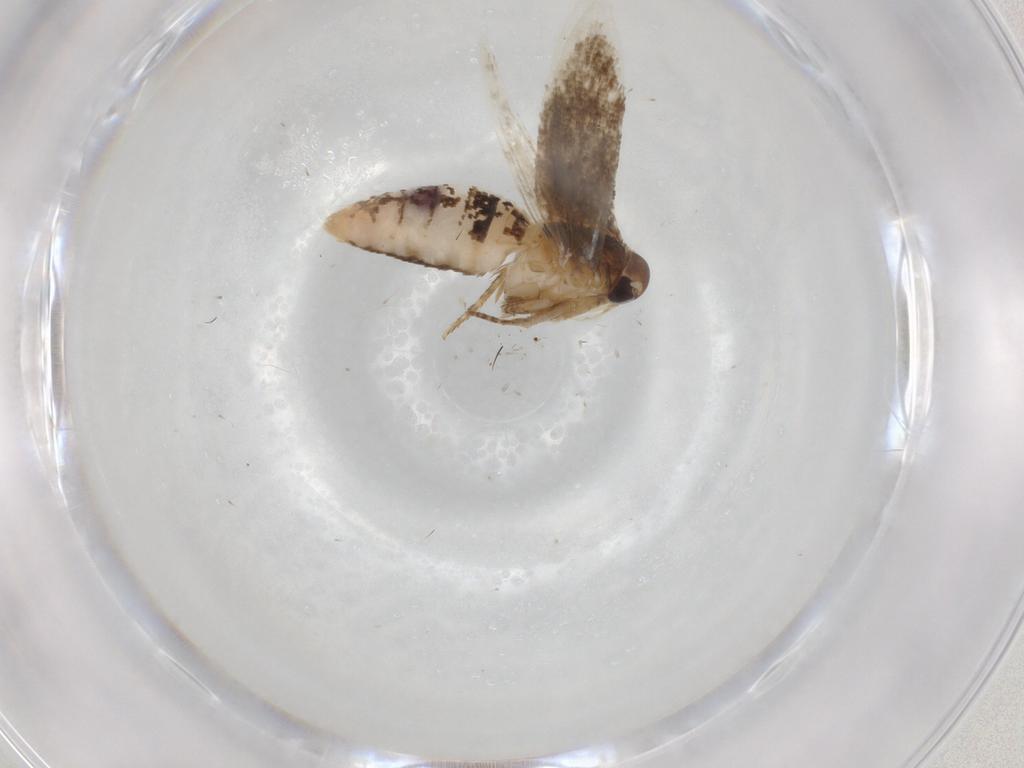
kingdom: Animalia
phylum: Arthropoda
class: Insecta
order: Lepidoptera
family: Cosmopterigidae
